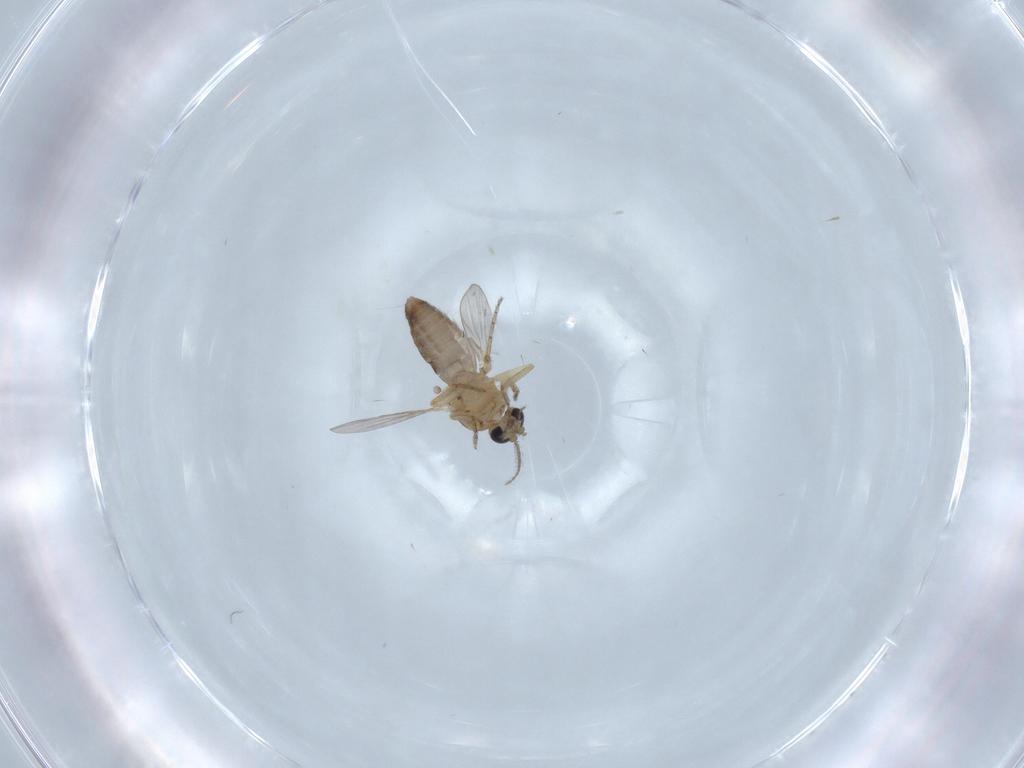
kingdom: Animalia
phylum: Arthropoda
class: Insecta
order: Diptera
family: Ceratopogonidae
